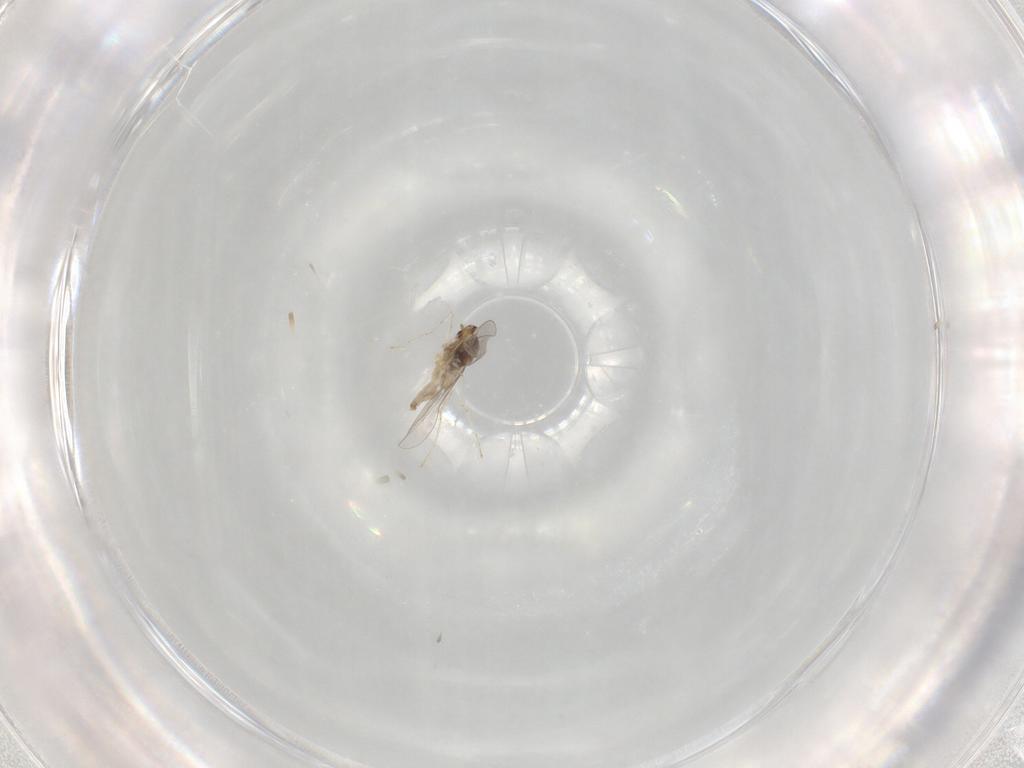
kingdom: Animalia
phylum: Arthropoda
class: Insecta
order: Diptera
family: Cecidomyiidae
